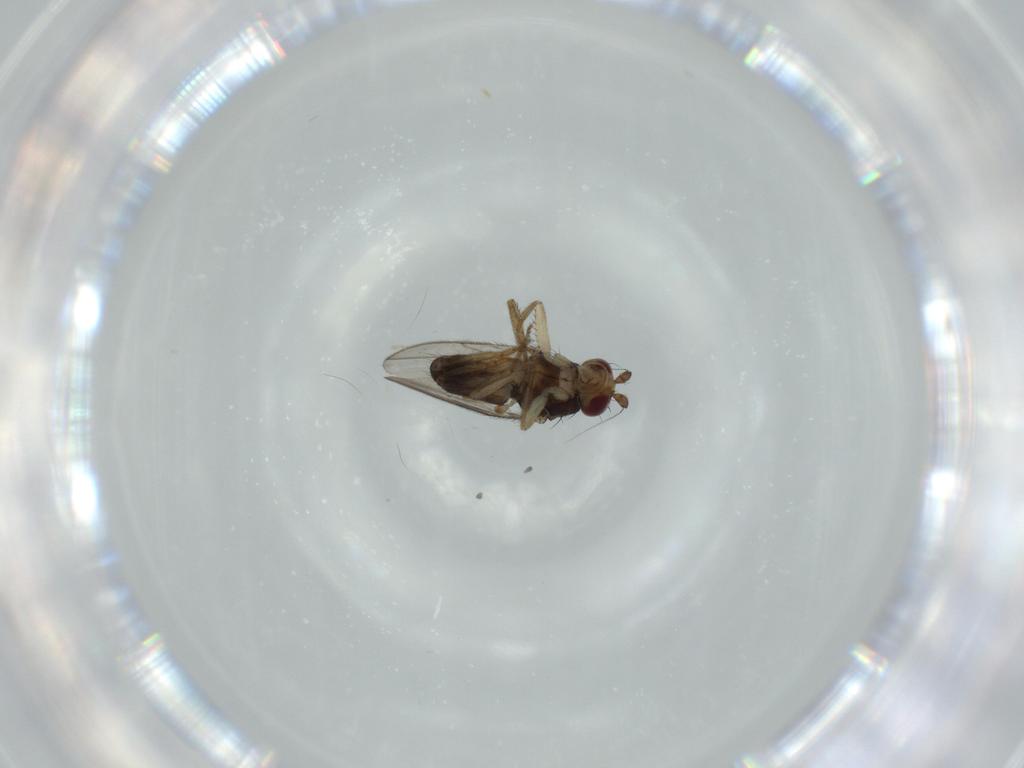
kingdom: Animalia
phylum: Arthropoda
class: Insecta
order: Diptera
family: Sphaeroceridae
